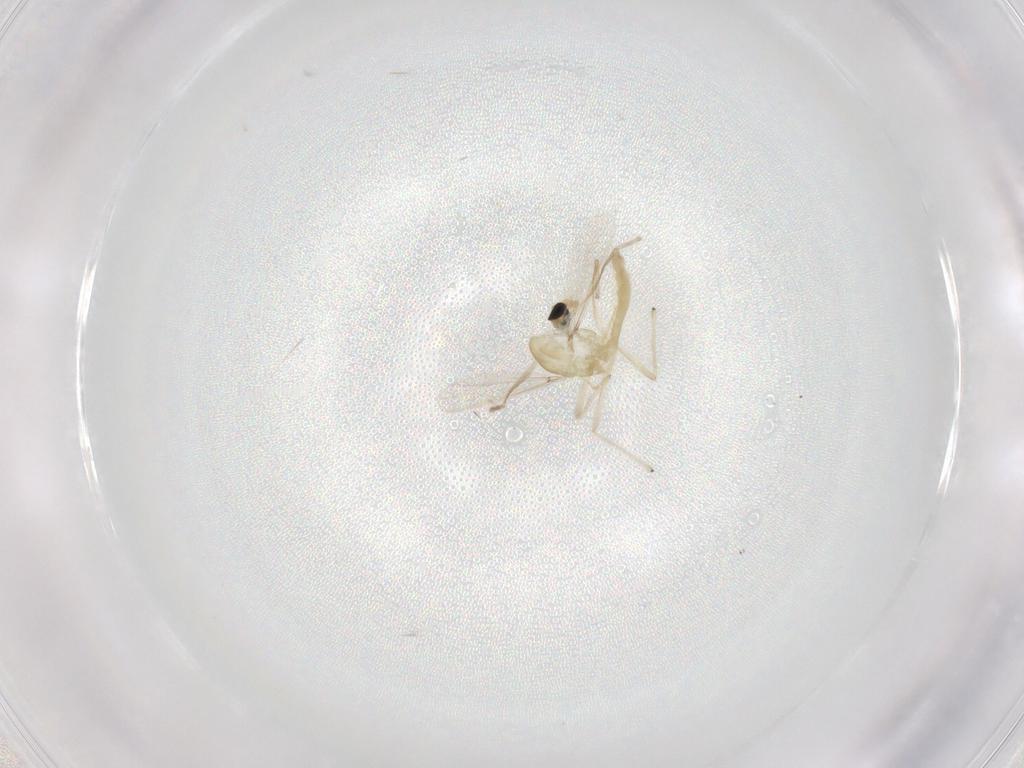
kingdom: Animalia
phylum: Arthropoda
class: Insecta
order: Diptera
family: Chironomidae
